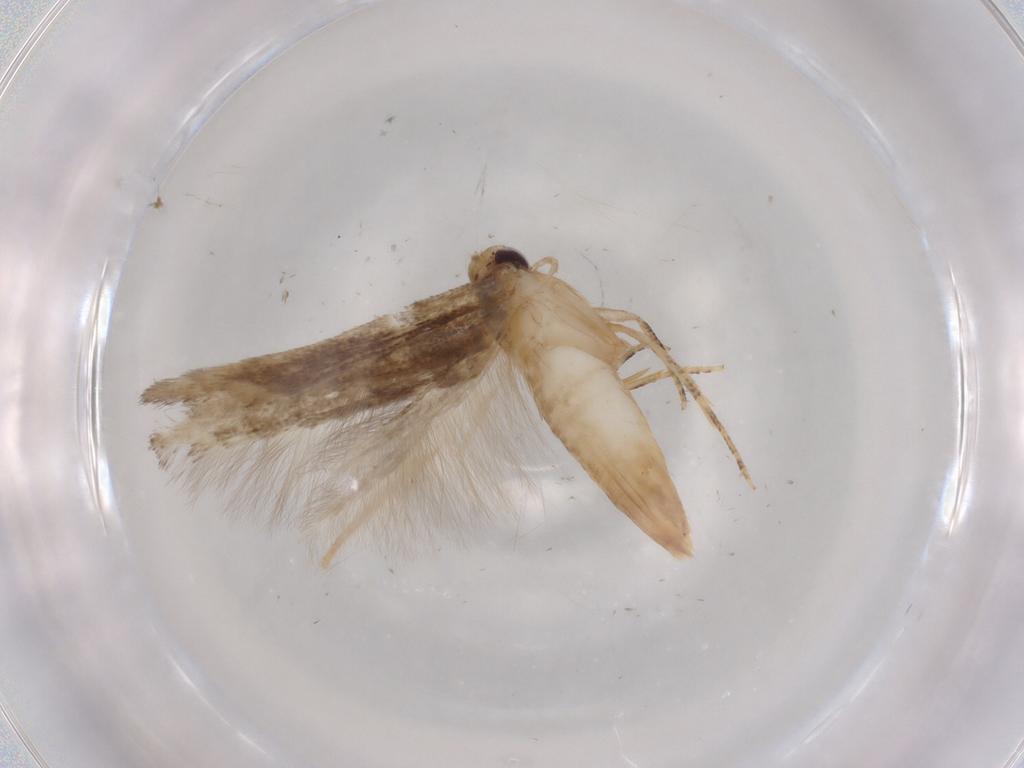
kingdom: Animalia
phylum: Arthropoda
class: Insecta
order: Lepidoptera
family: Cosmopterigidae
